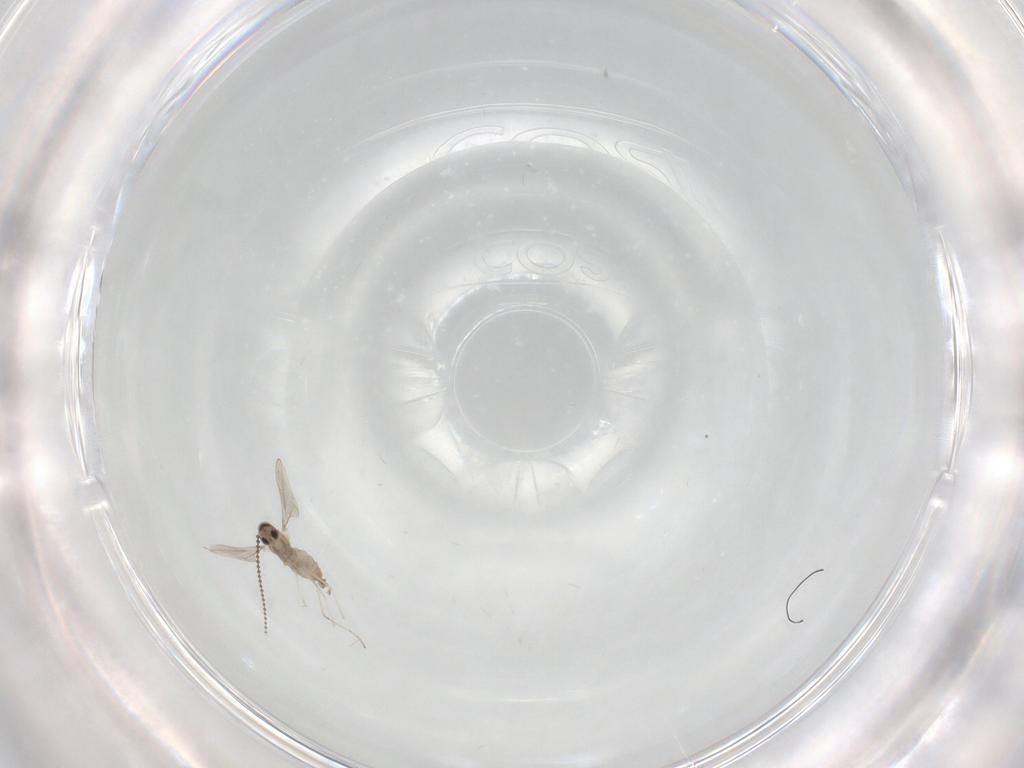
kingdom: Animalia
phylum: Arthropoda
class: Insecta
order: Diptera
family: Cecidomyiidae
